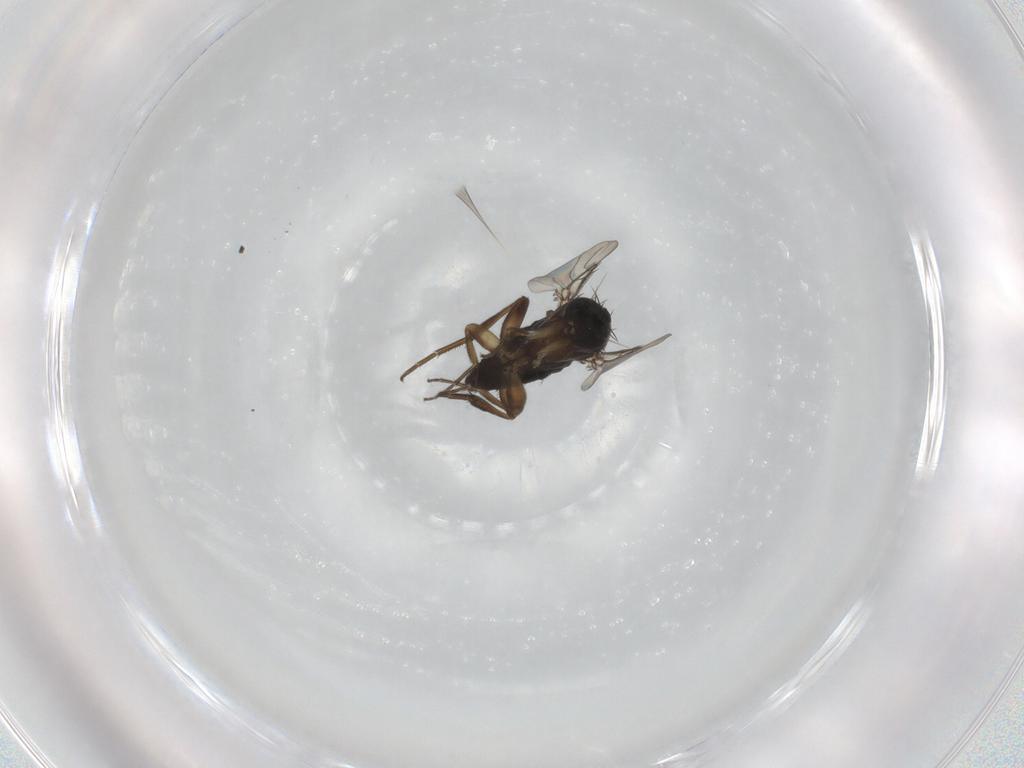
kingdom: Animalia
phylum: Arthropoda
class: Insecta
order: Diptera
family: Phoridae
